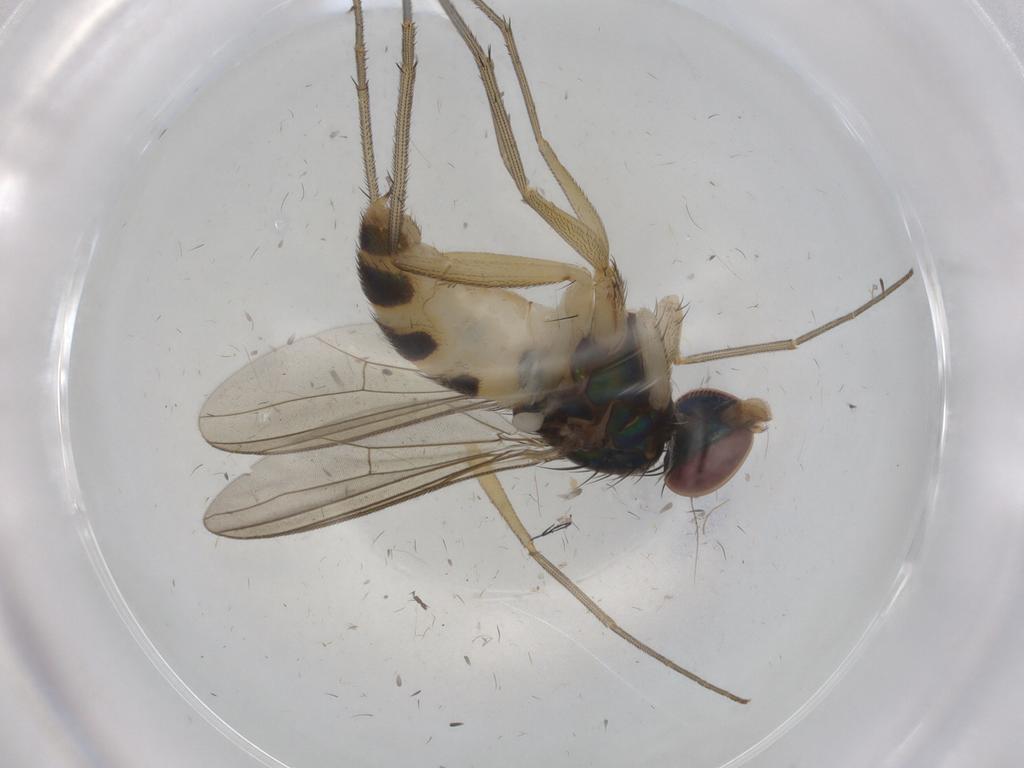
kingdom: Animalia
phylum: Arthropoda
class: Insecta
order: Diptera
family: Dolichopodidae
